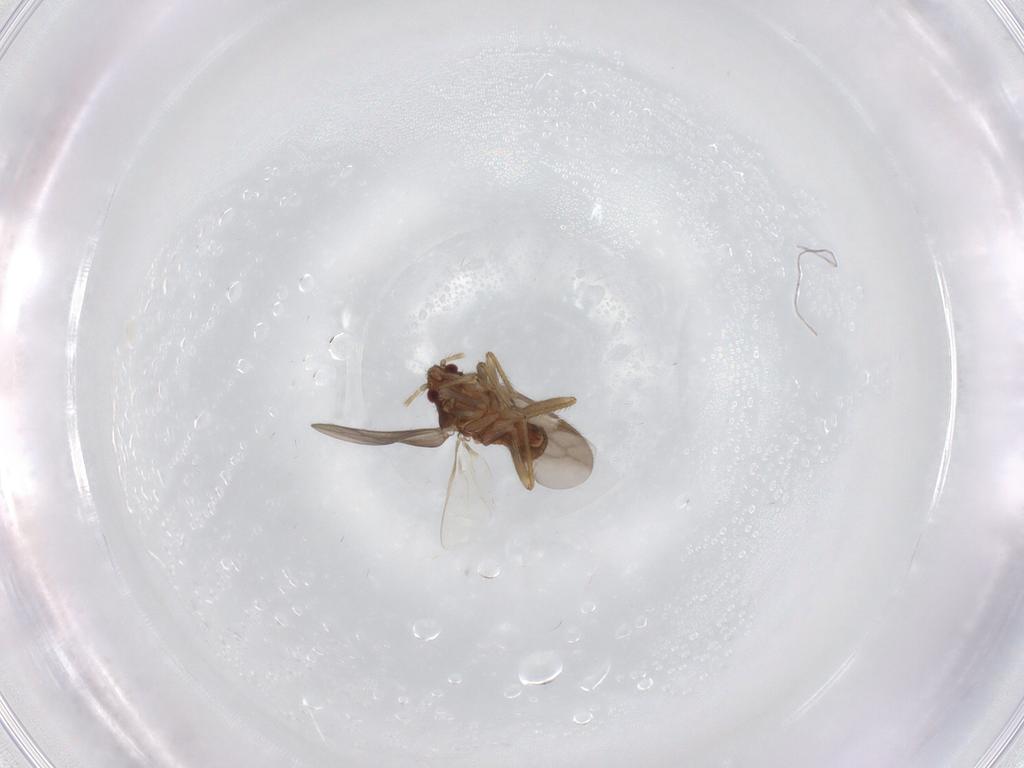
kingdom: Animalia
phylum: Arthropoda
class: Insecta
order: Hemiptera
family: Ceratocombidae
